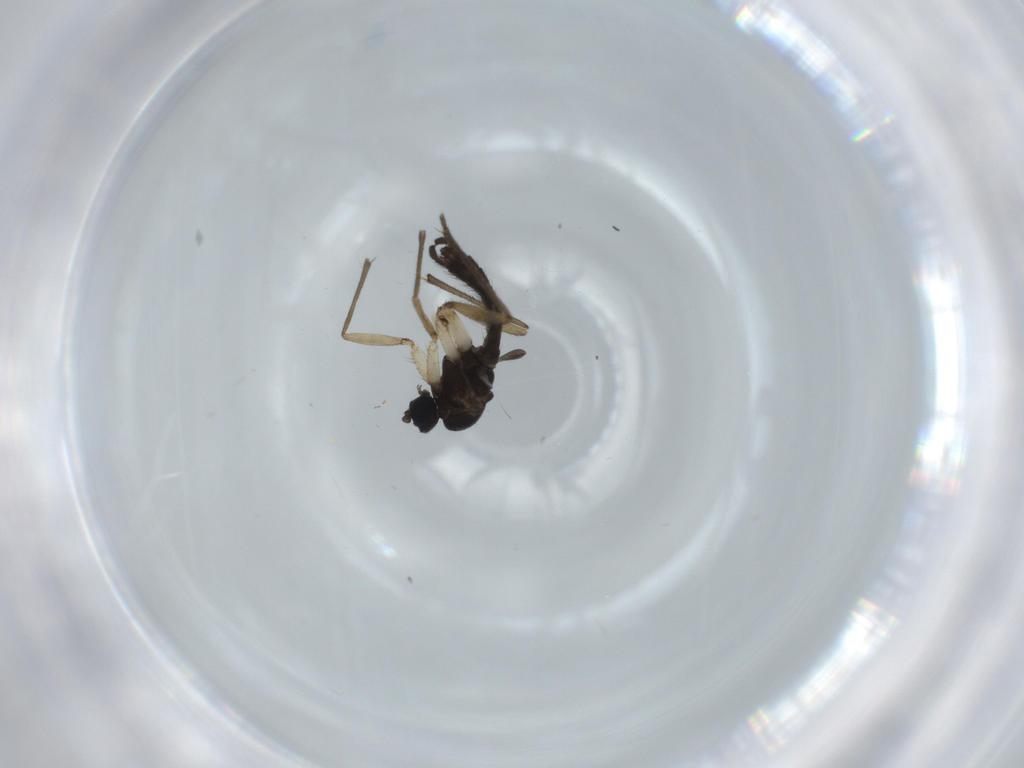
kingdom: Animalia
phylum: Arthropoda
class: Insecta
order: Diptera
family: Sciaridae
